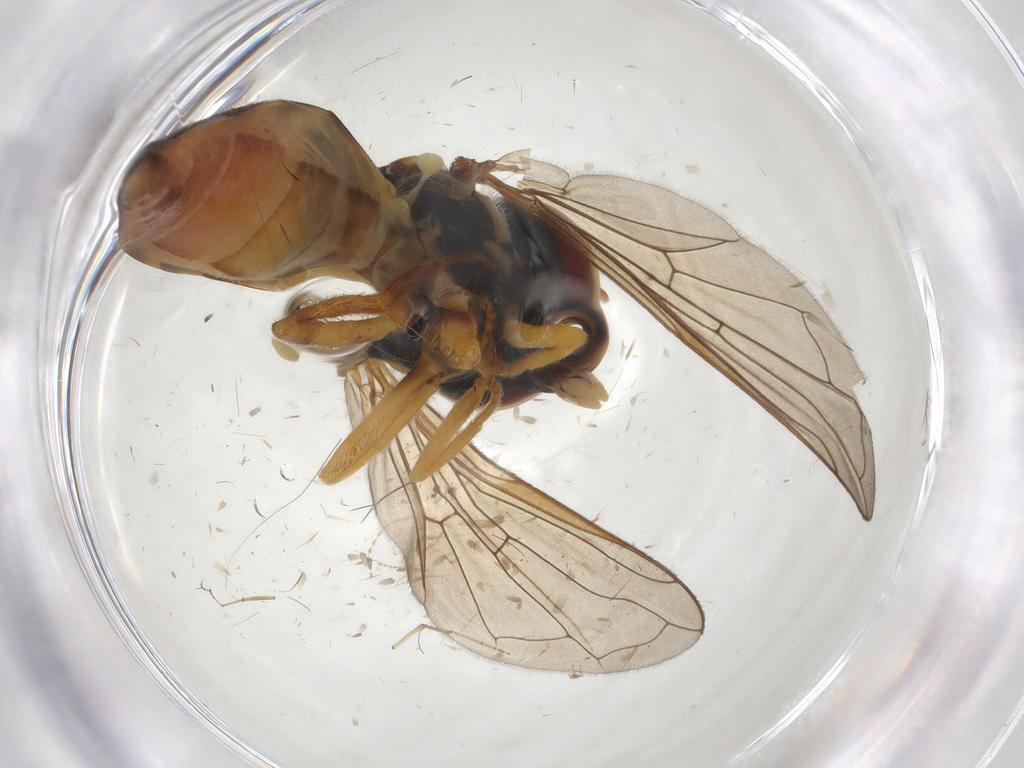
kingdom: Animalia
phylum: Arthropoda
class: Insecta
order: Diptera
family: Syrphidae
